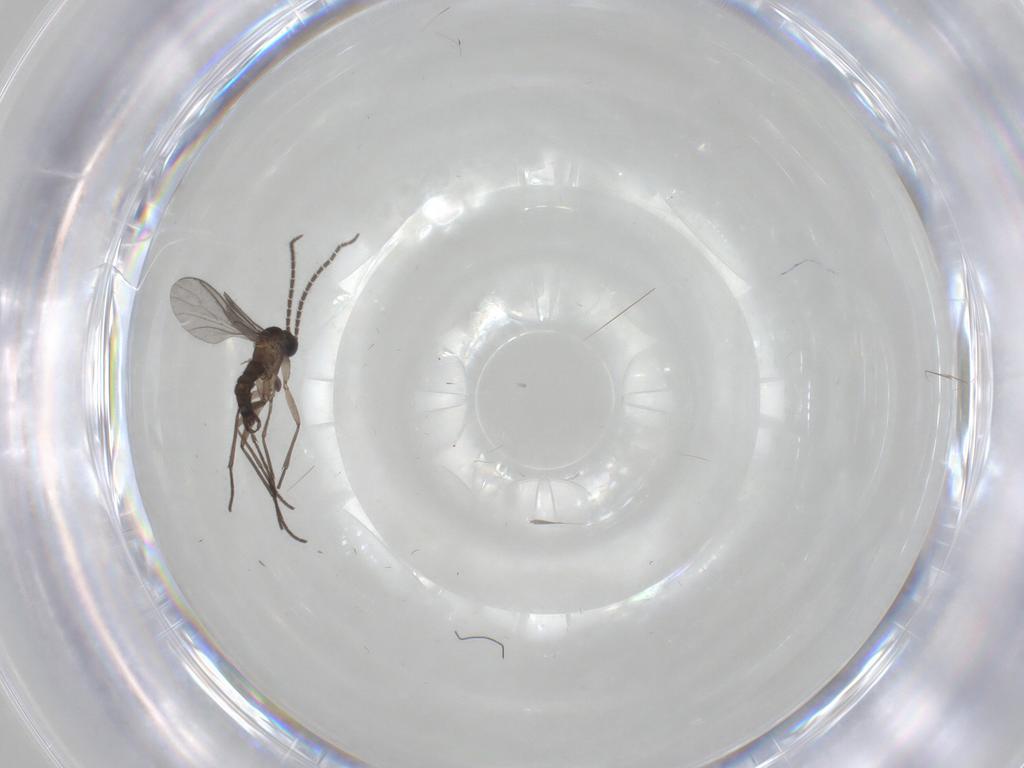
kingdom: Animalia
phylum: Arthropoda
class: Insecta
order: Diptera
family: Sciaridae
